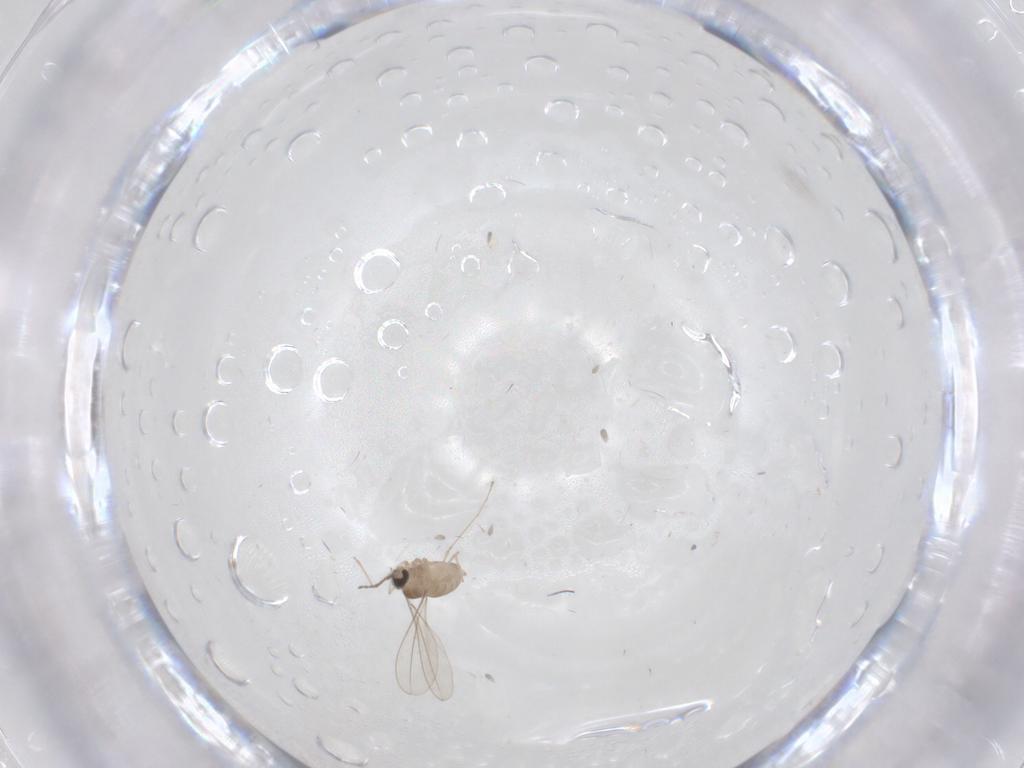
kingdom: Animalia
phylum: Arthropoda
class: Insecta
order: Diptera
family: Cecidomyiidae
